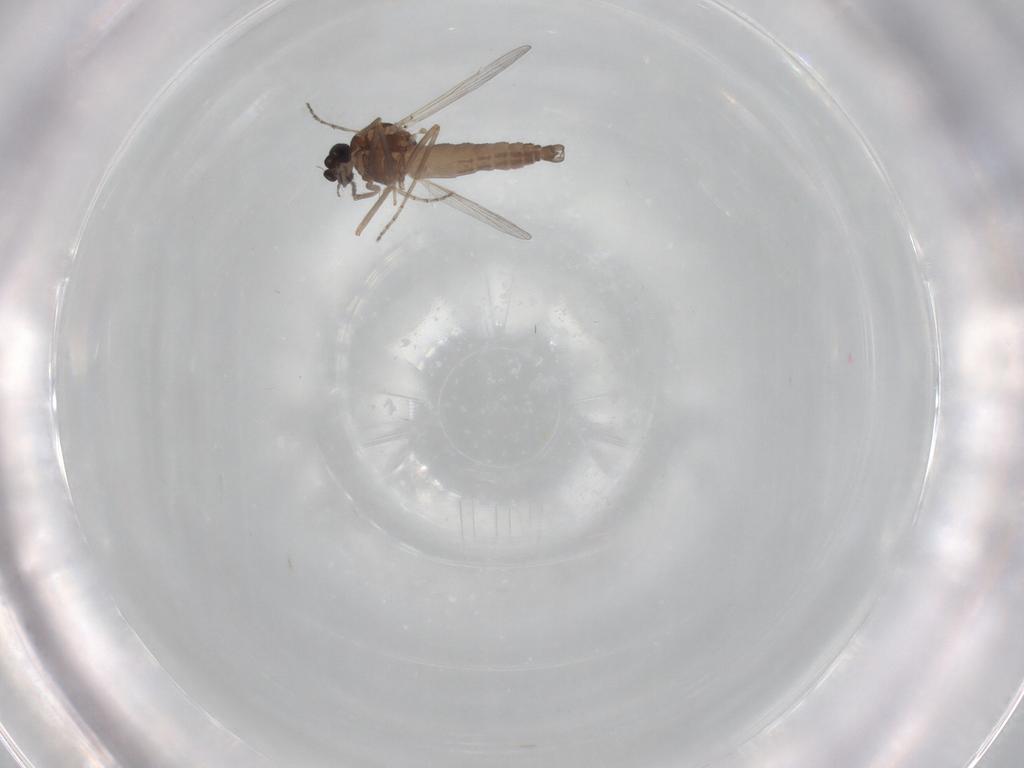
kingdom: Animalia
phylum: Arthropoda
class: Insecta
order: Diptera
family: Ceratopogonidae
